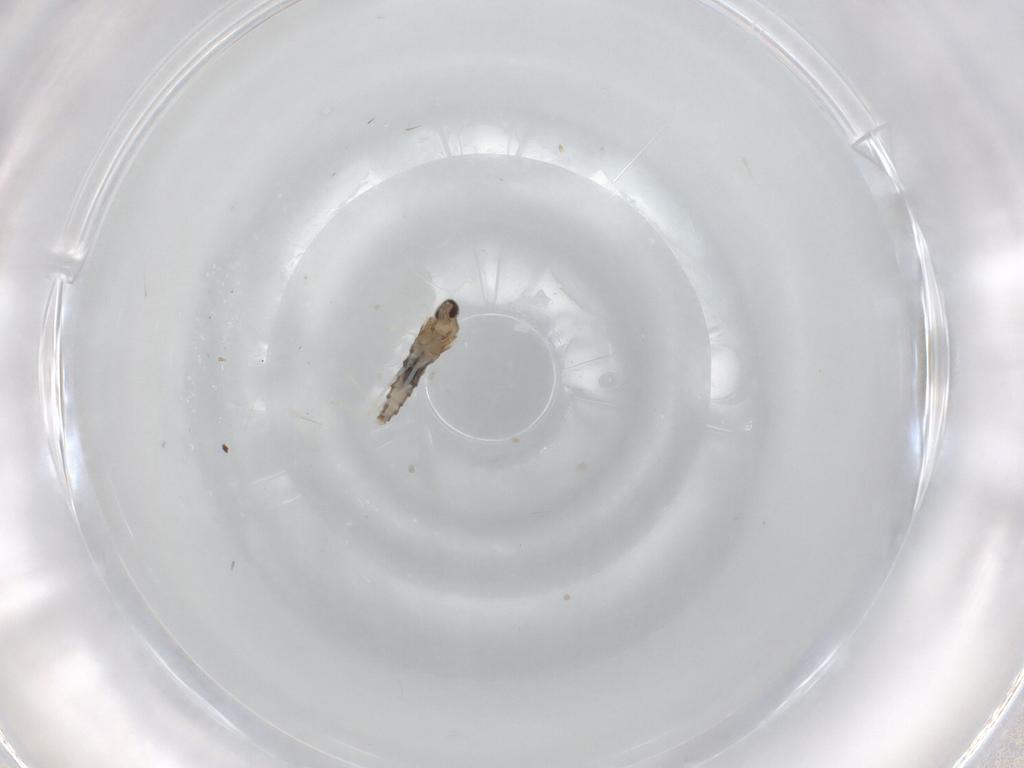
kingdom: Animalia
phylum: Arthropoda
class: Insecta
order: Diptera
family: Cecidomyiidae
